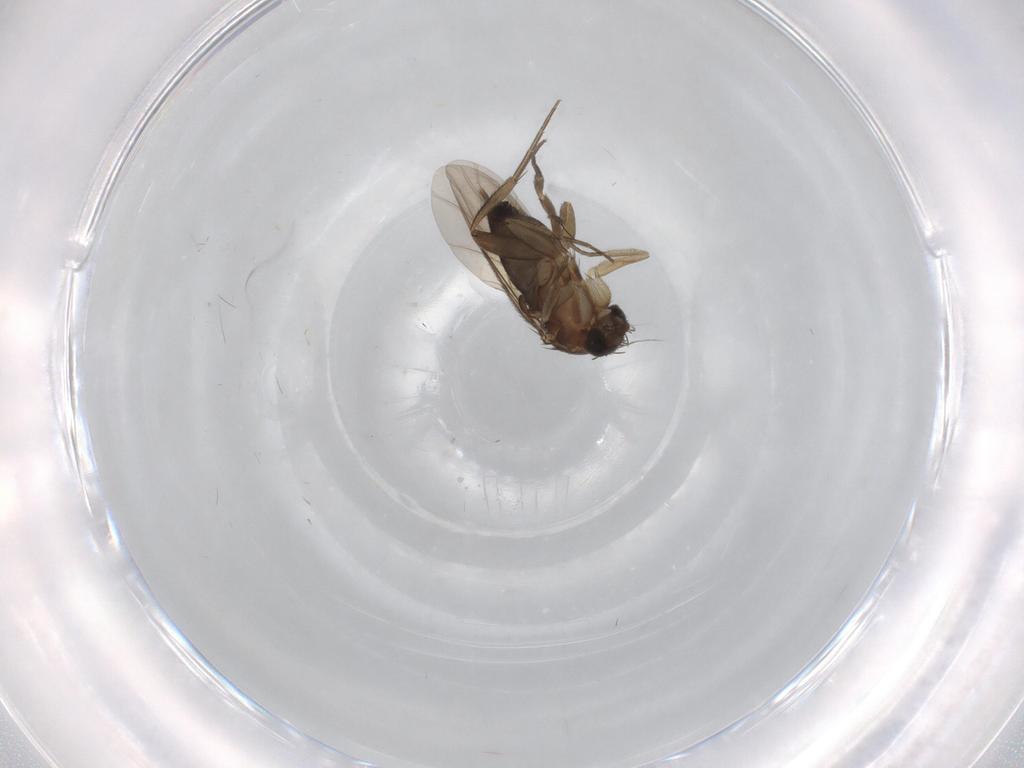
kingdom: Animalia
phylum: Arthropoda
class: Insecta
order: Diptera
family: Phoridae
